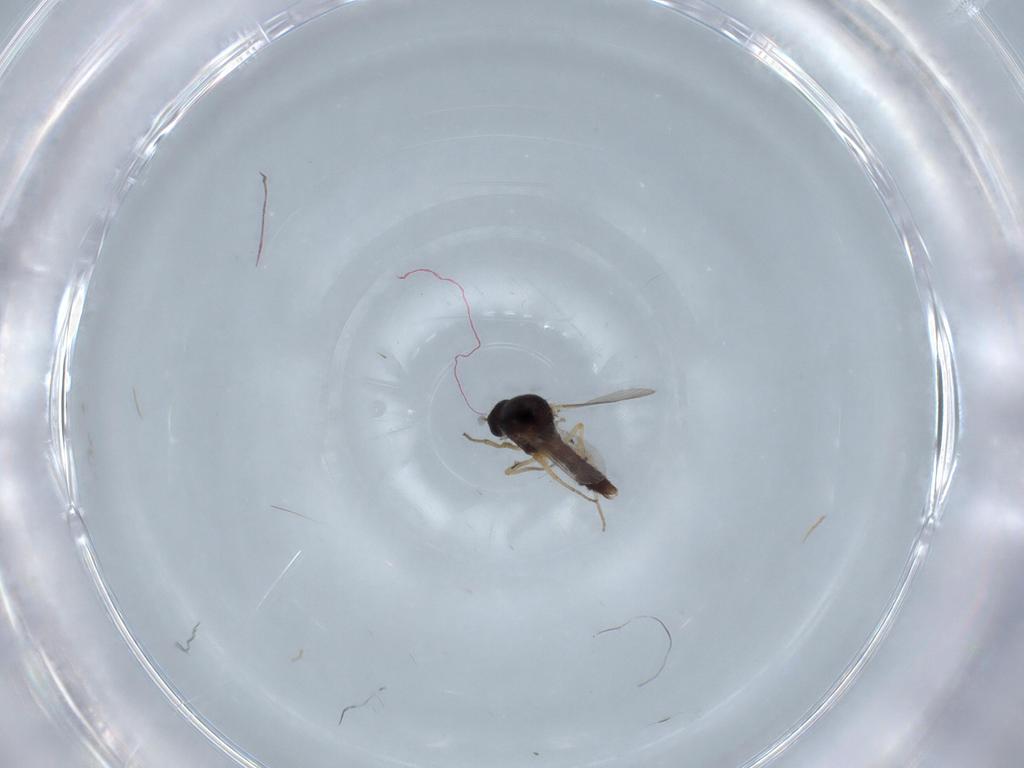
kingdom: Animalia
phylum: Arthropoda
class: Insecta
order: Diptera
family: Ceratopogonidae
